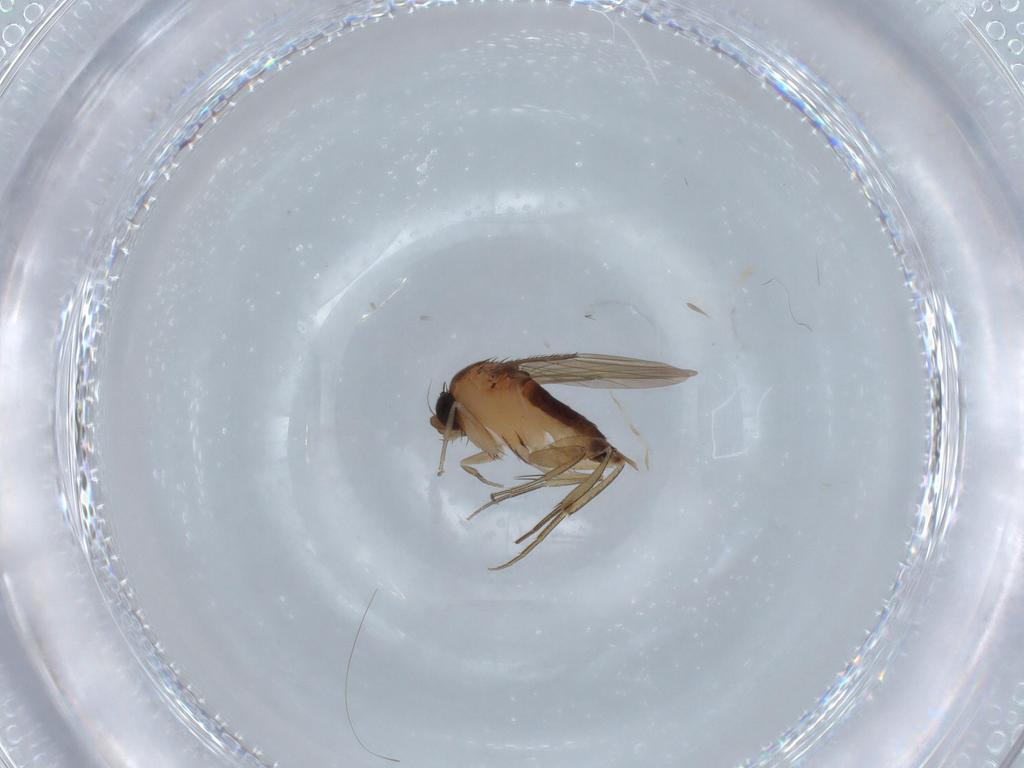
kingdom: Animalia
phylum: Arthropoda
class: Insecta
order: Diptera
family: Phoridae
